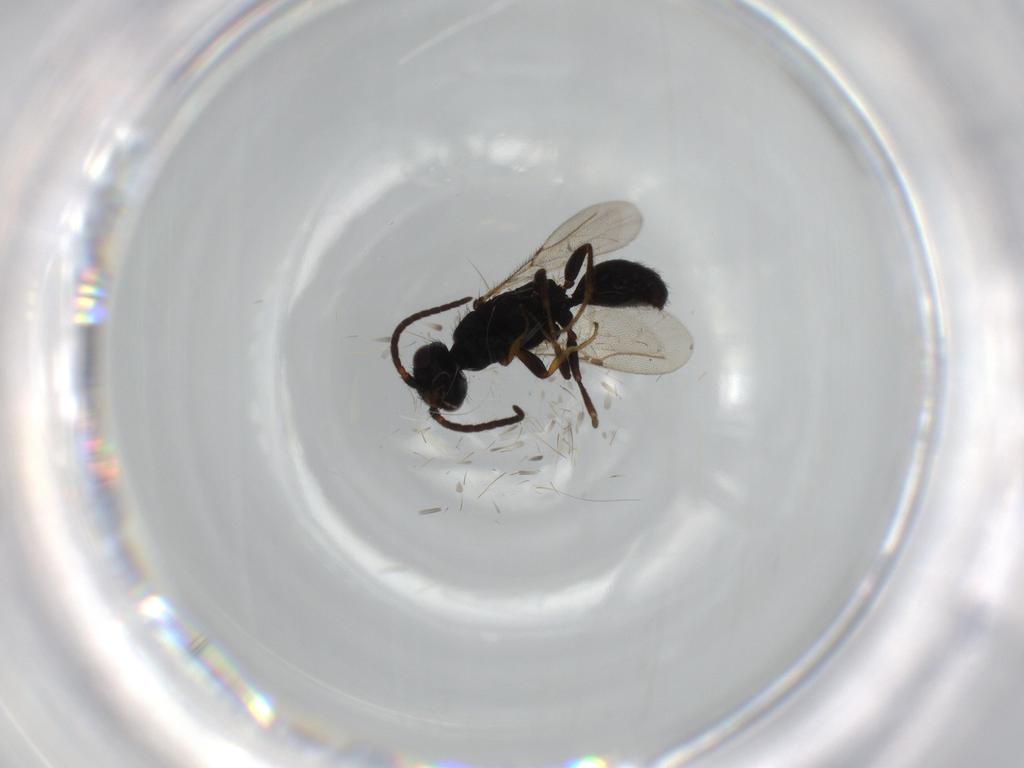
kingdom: Animalia
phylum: Arthropoda
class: Insecta
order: Hymenoptera
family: Bethylidae
